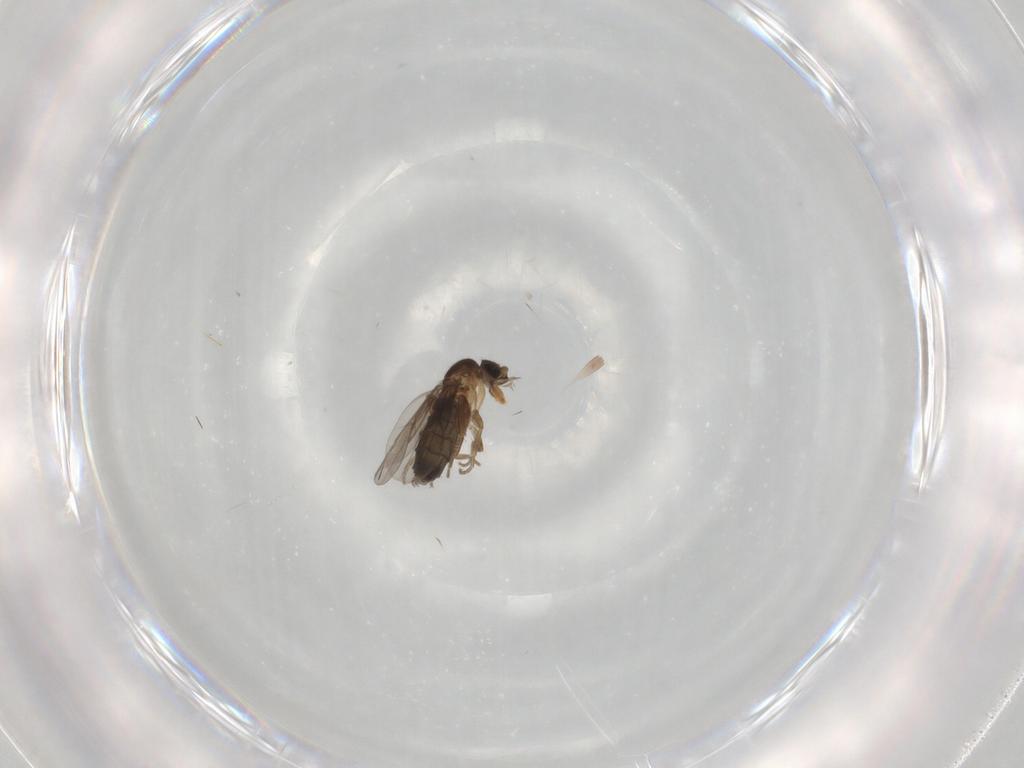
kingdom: Animalia
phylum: Arthropoda
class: Insecta
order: Diptera
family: Phoridae
